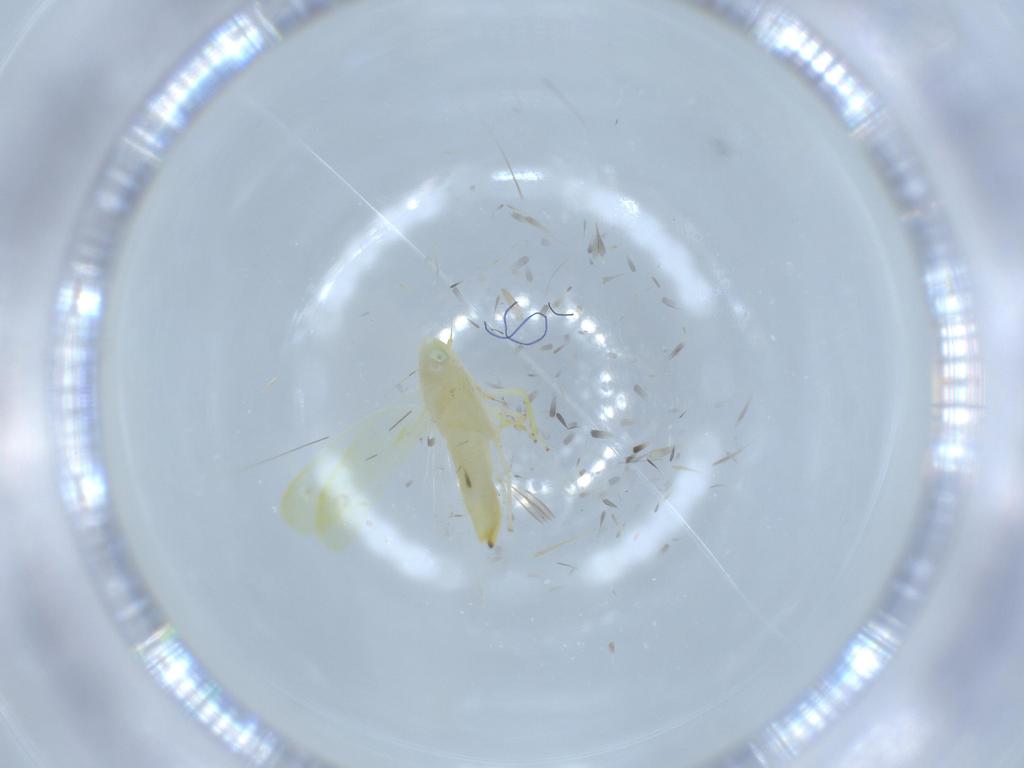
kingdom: Animalia
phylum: Arthropoda
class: Insecta
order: Hemiptera
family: Cicadellidae
